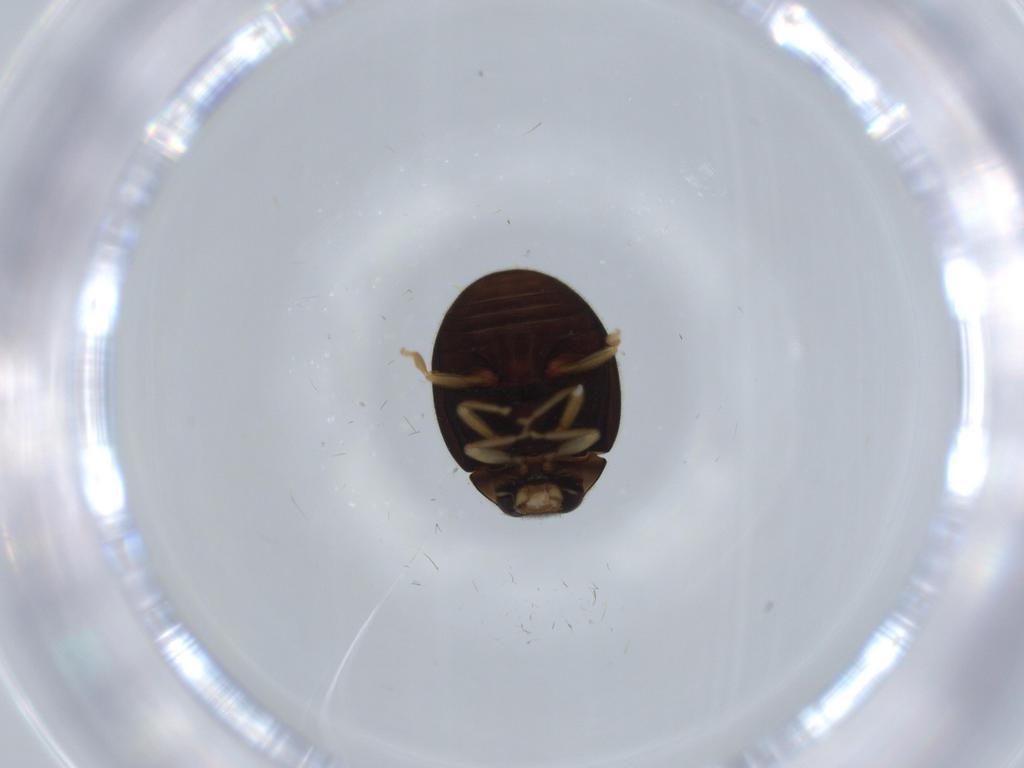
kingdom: Animalia
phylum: Arthropoda
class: Insecta
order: Coleoptera
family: Coccinellidae
